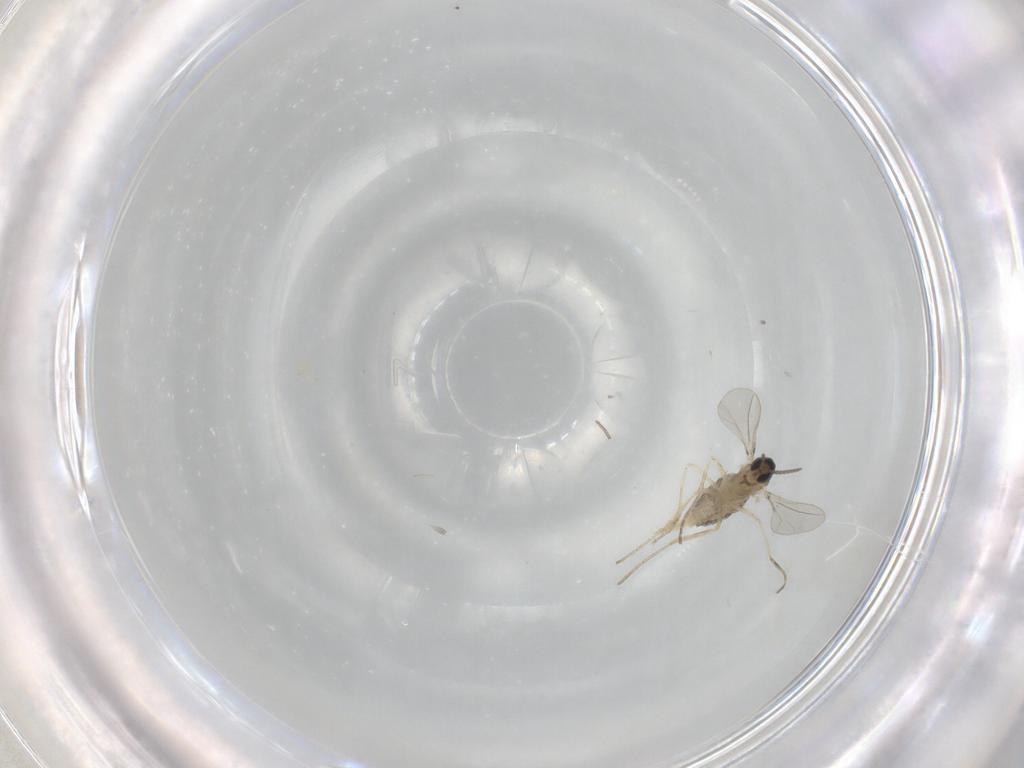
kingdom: Animalia
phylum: Arthropoda
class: Insecta
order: Diptera
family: Cecidomyiidae
